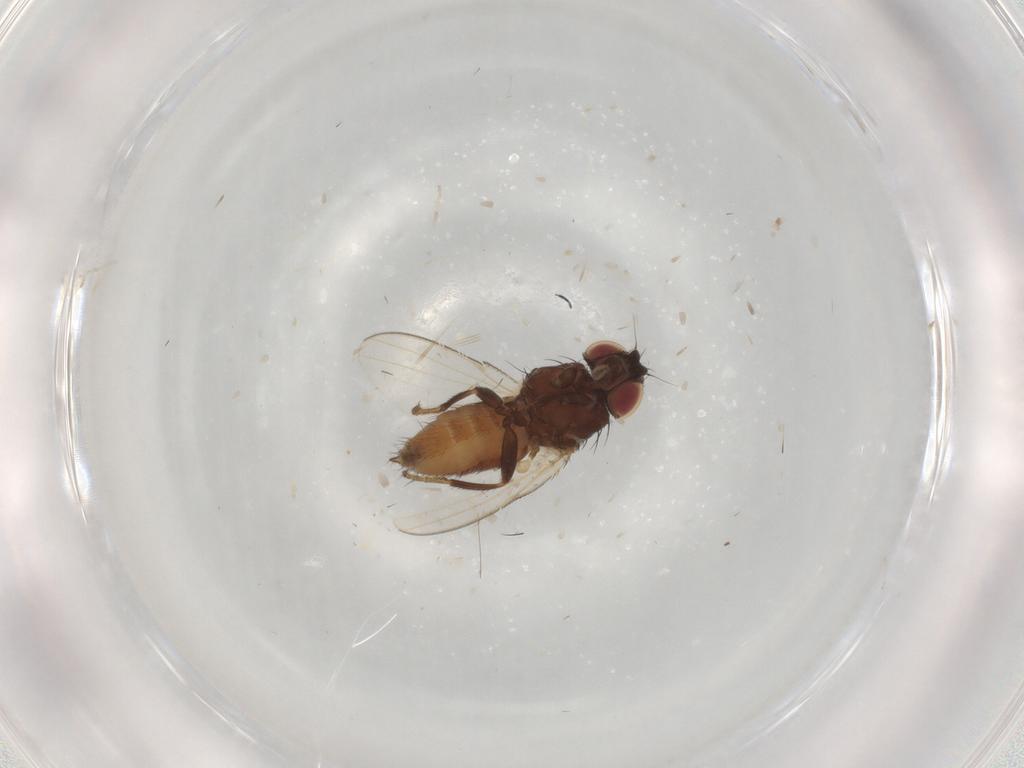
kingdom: Animalia
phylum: Arthropoda
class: Insecta
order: Diptera
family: Milichiidae
